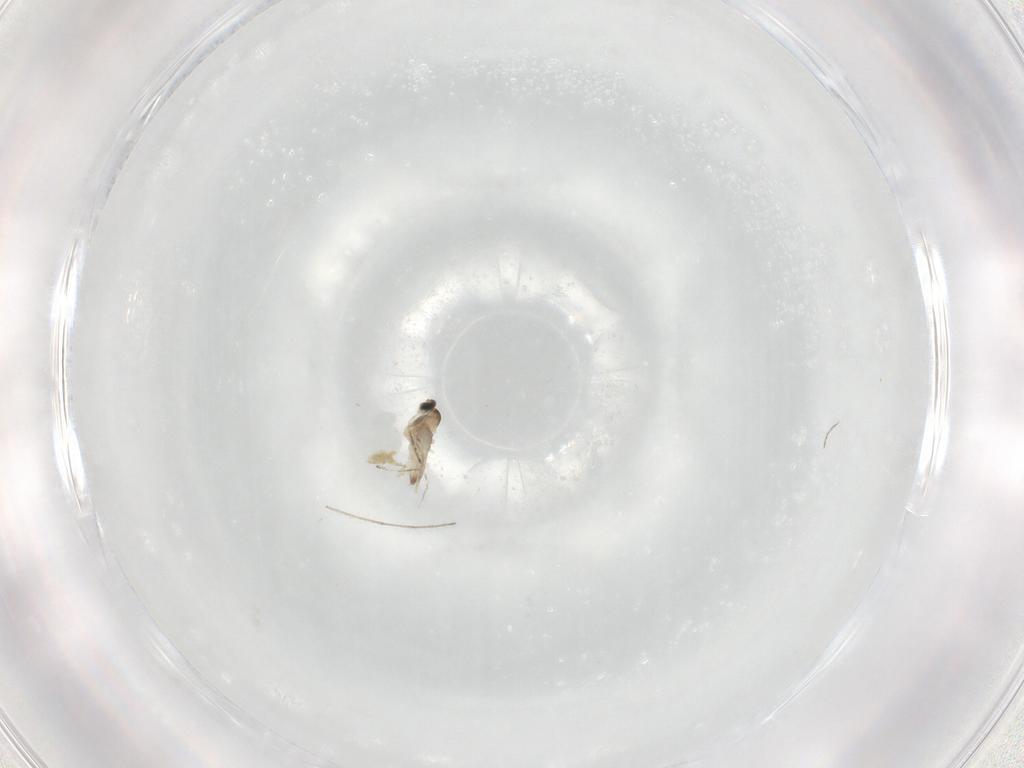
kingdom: Animalia
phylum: Arthropoda
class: Insecta
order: Diptera
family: Chironomidae
